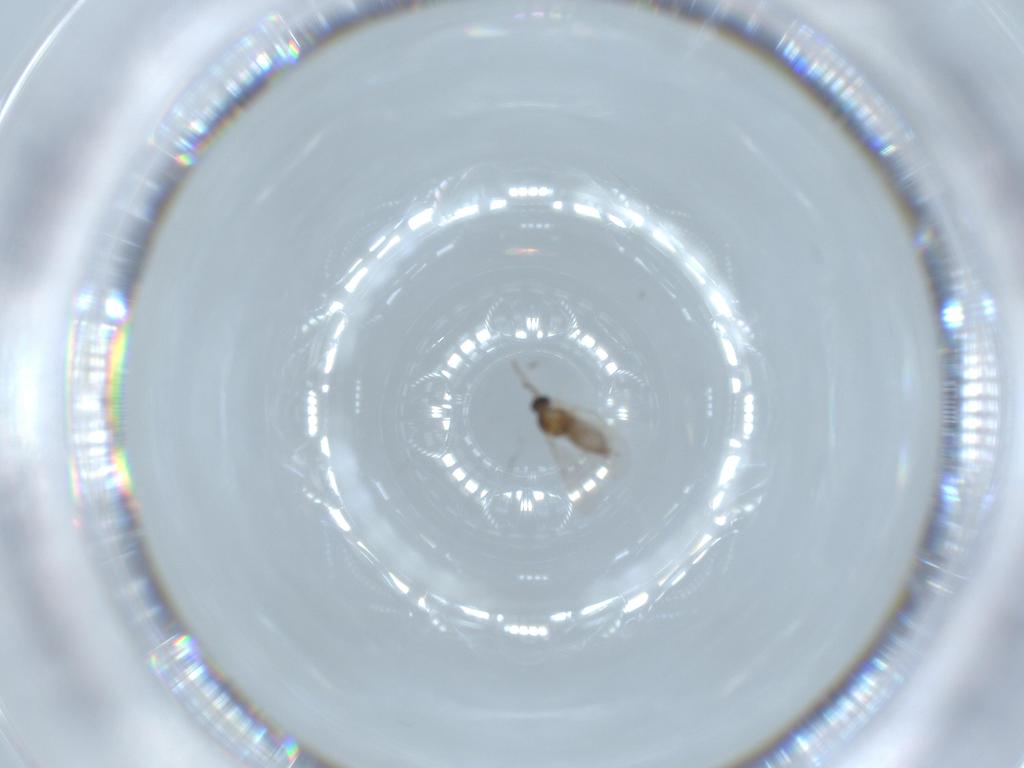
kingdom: Animalia
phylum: Arthropoda
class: Insecta
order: Diptera
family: Cecidomyiidae
